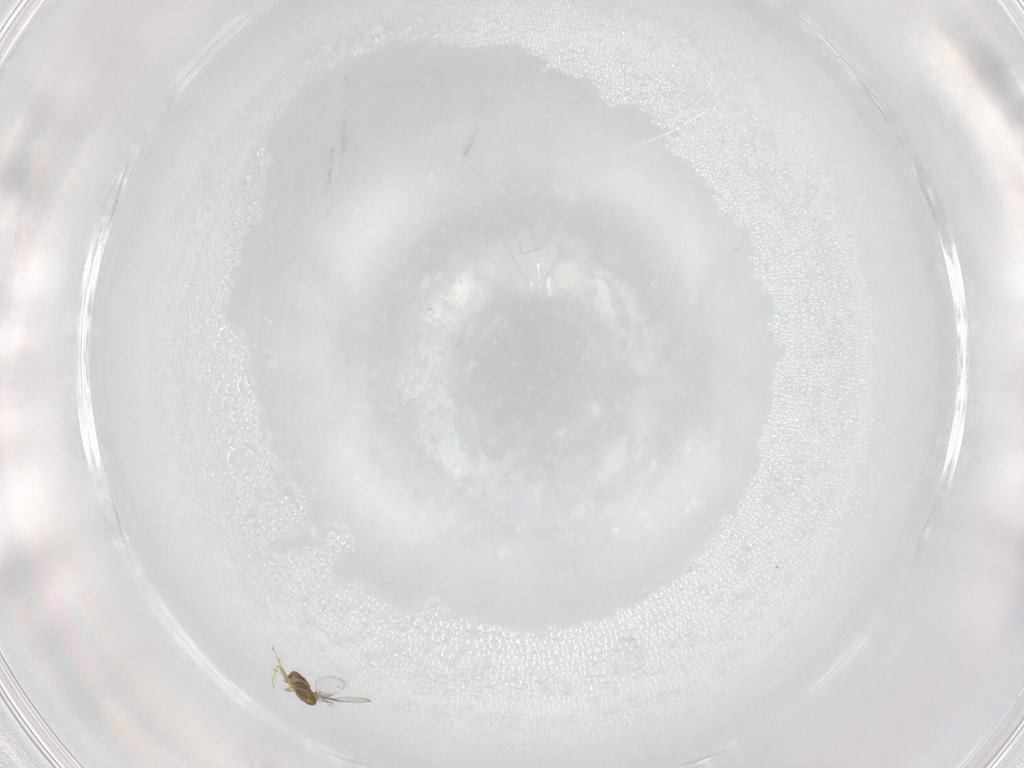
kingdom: Animalia
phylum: Arthropoda
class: Insecta
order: Hymenoptera
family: Trichogrammatidae
